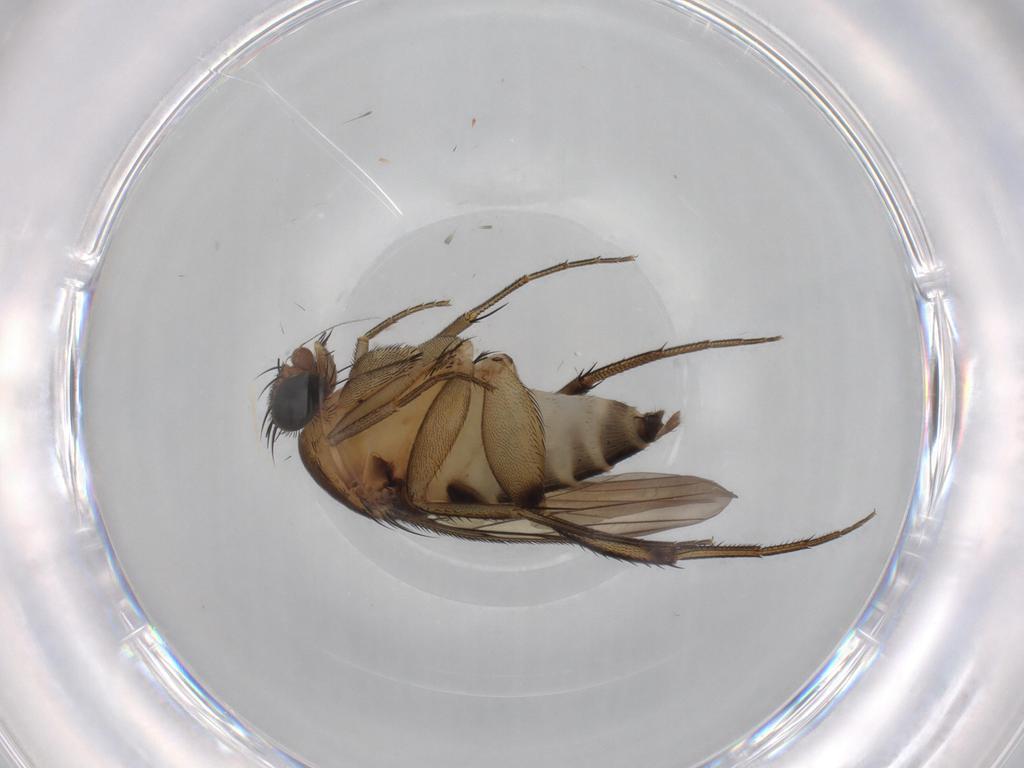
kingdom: Animalia
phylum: Arthropoda
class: Insecta
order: Diptera
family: Phoridae
